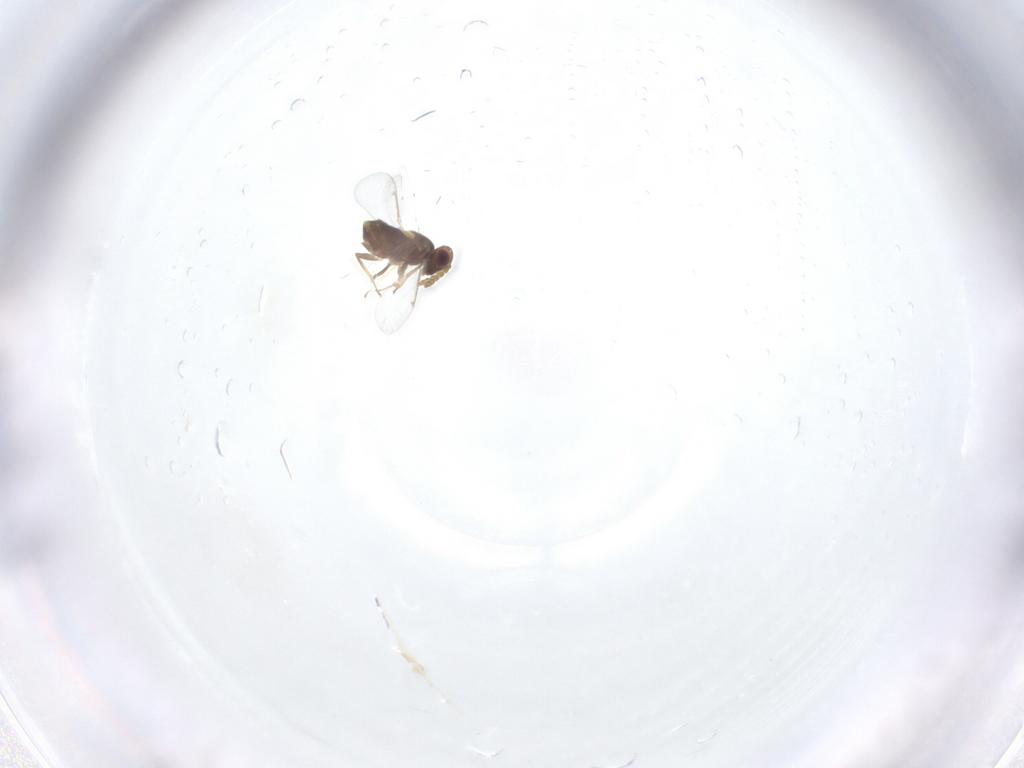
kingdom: Animalia
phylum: Arthropoda
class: Insecta
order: Hymenoptera
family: Aphelinidae
